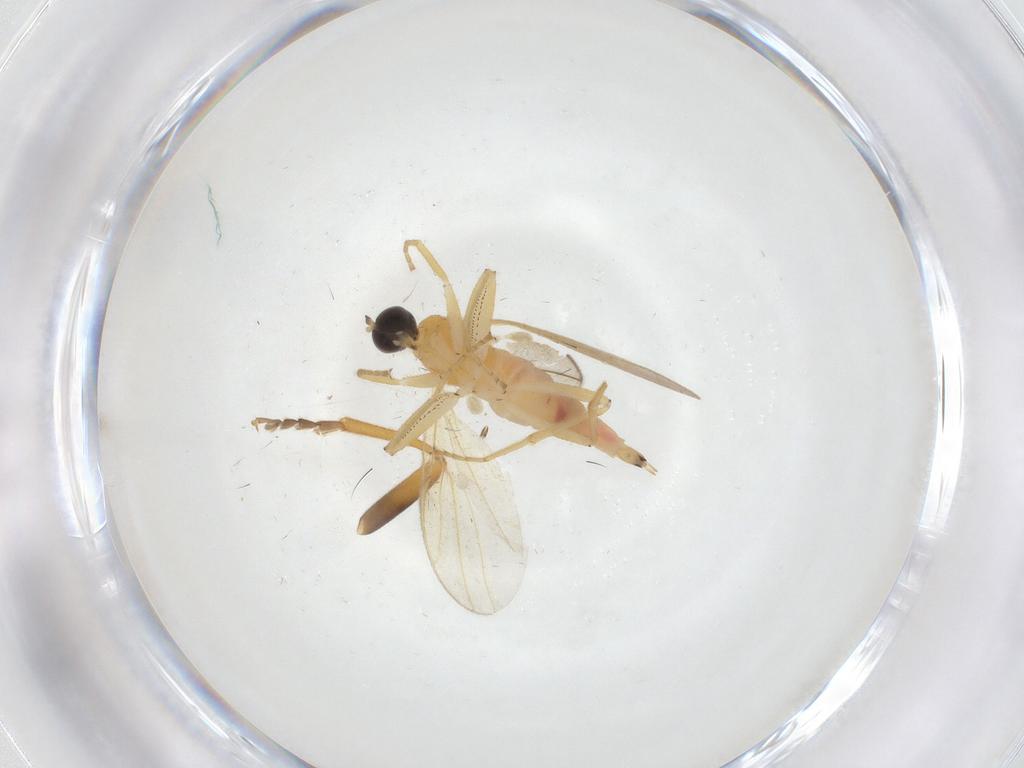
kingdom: Animalia
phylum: Arthropoda
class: Insecta
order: Diptera
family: Hybotidae
